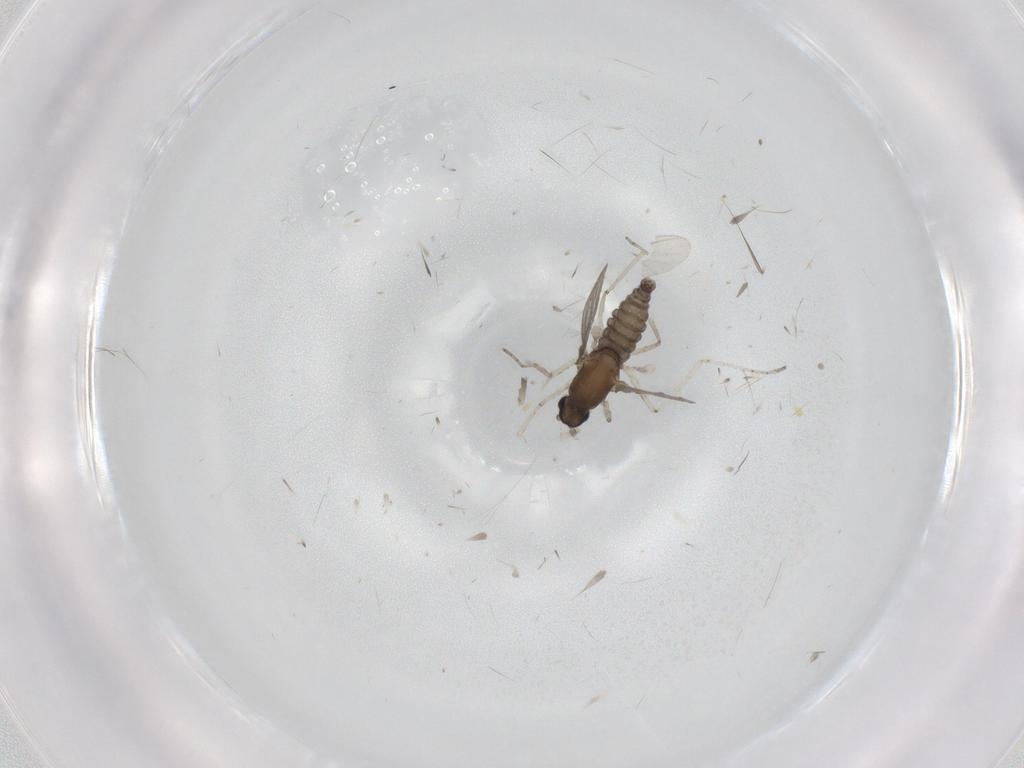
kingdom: Animalia
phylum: Arthropoda
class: Insecta
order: Diptera
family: Cecidomyiidae
